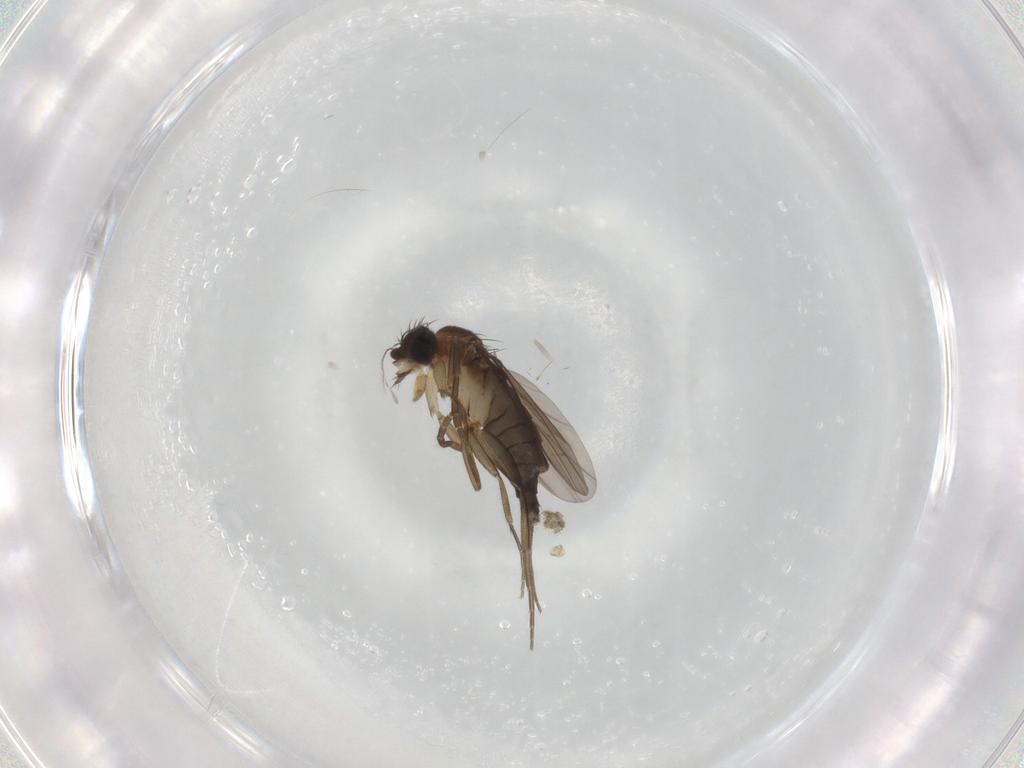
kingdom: Animalia
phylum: Arthropoda
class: Insecta
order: Diptera
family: Phoridae
